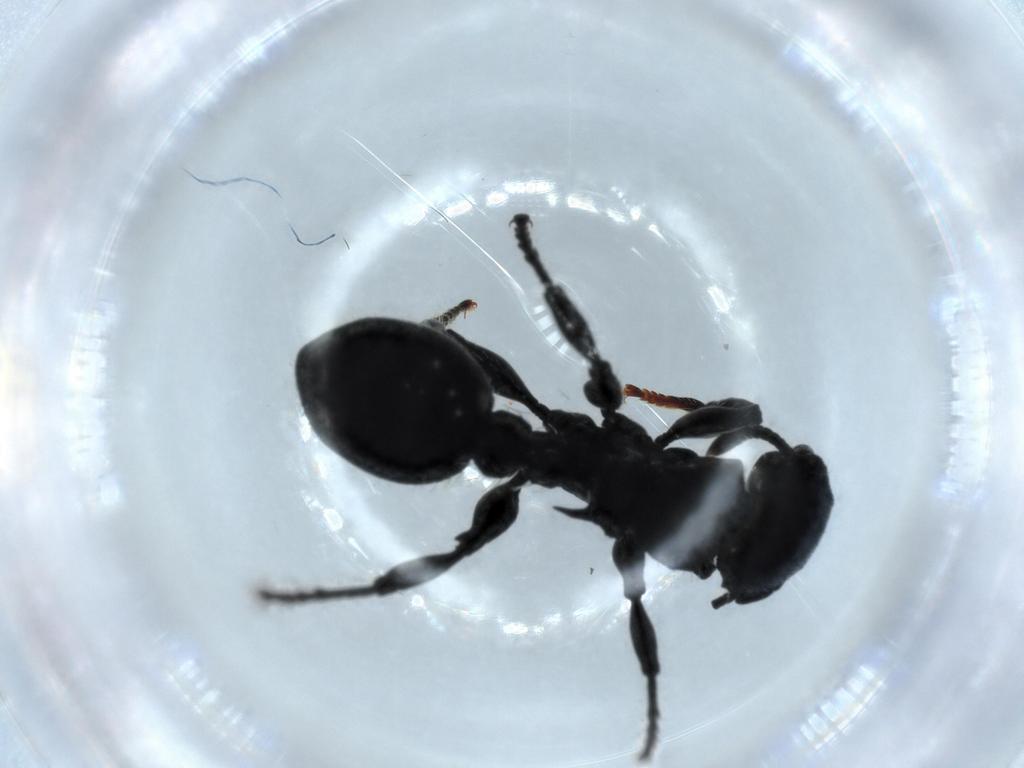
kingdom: Animalia
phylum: Arthropoda
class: Insecta
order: Hymenoptera
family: Formicidae
